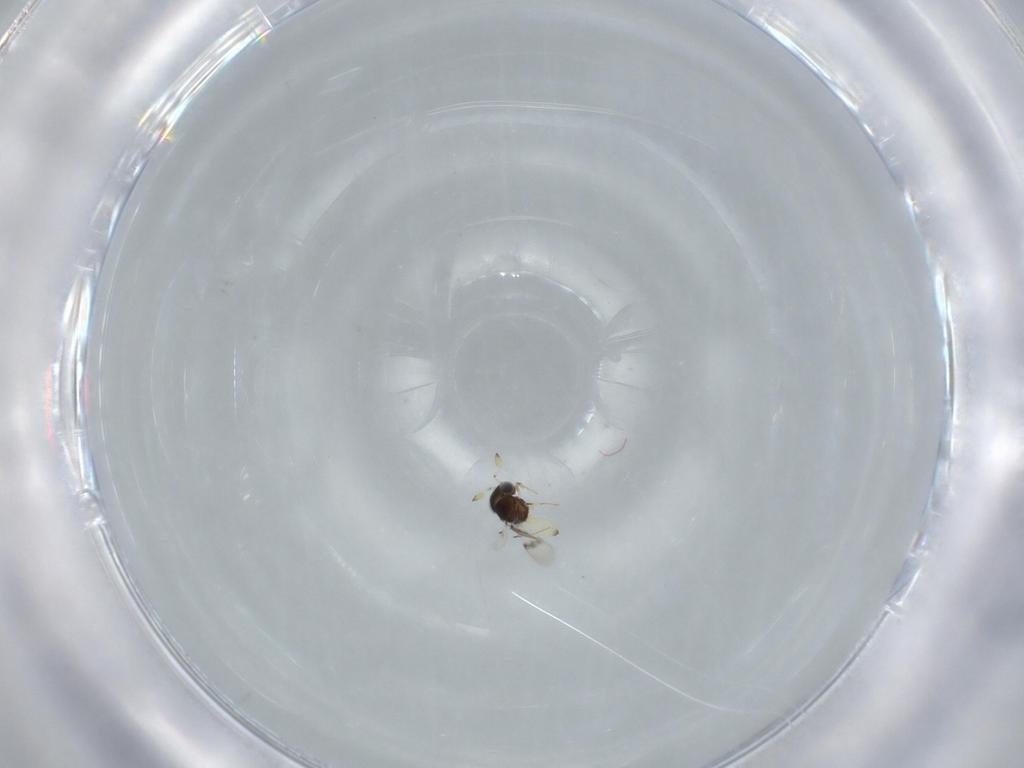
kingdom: Animalia
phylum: Arthropoda
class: Insecta
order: Hymenoptera
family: Scelionidae
